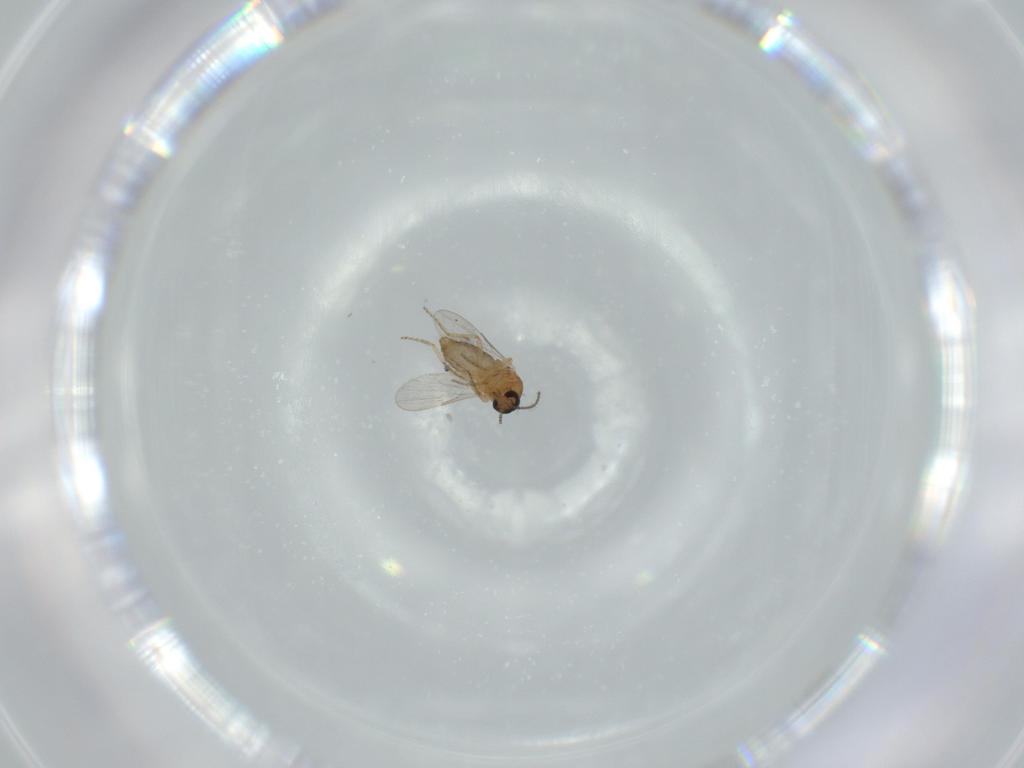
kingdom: Animalia
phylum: Arthropoda
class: Insecta
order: Diptera
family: Ceratopogonidae
